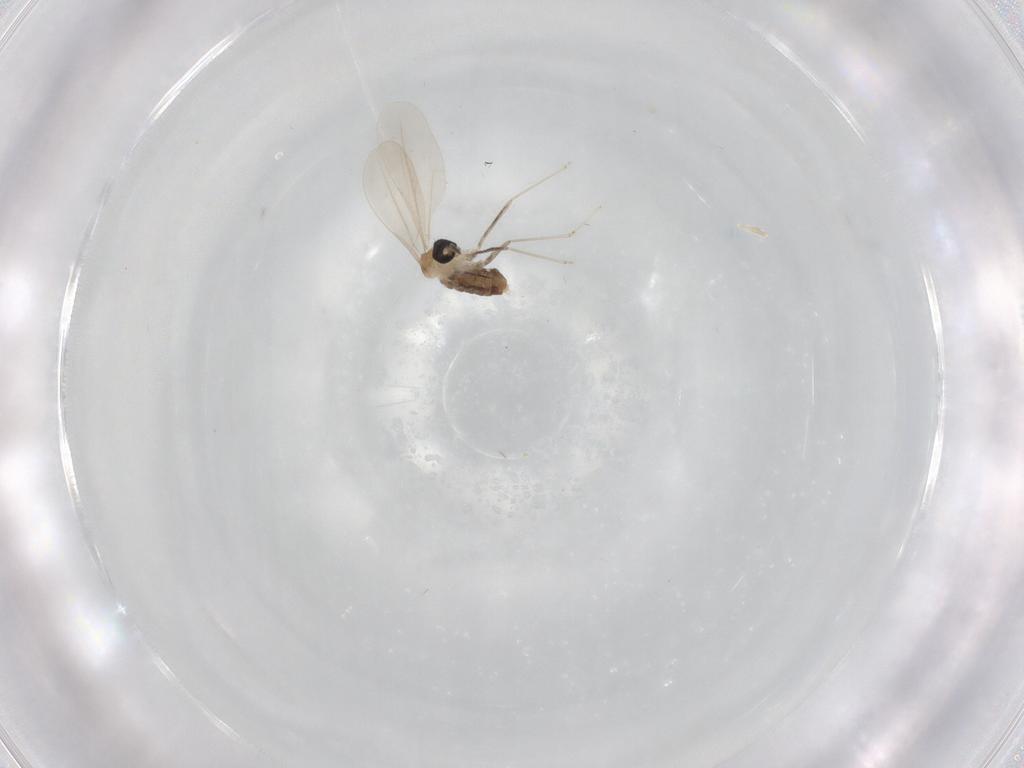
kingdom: Animalia
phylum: Arthropoda
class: Insecta
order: Diptera
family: Cecidomyiidae
